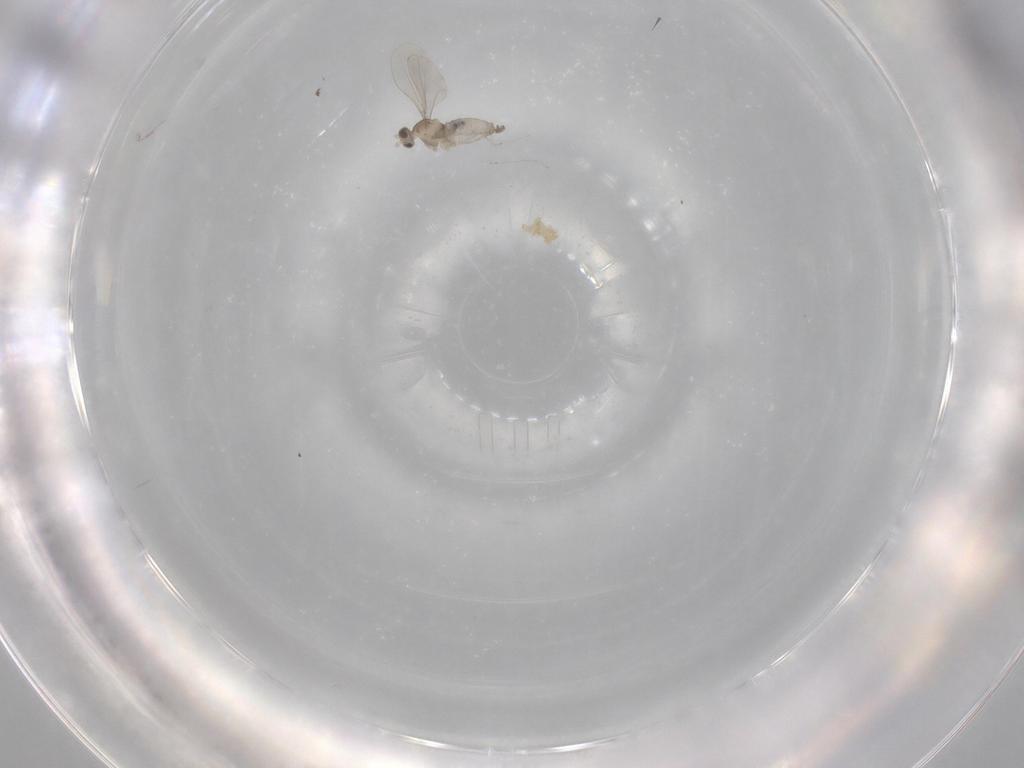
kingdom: Animalia
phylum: Arthropoda
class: Insecta
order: Diptera
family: Cecidomyiidae
